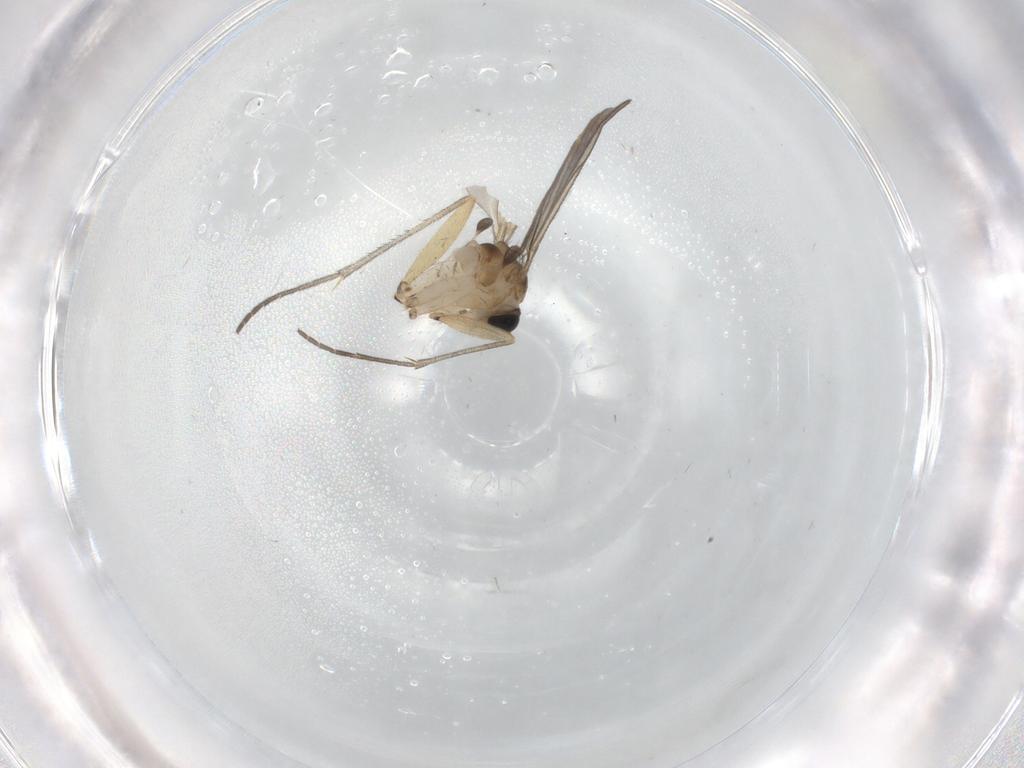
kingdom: Animalia
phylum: Arthropoda
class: Insecta
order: Diptera
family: Sciaridae
